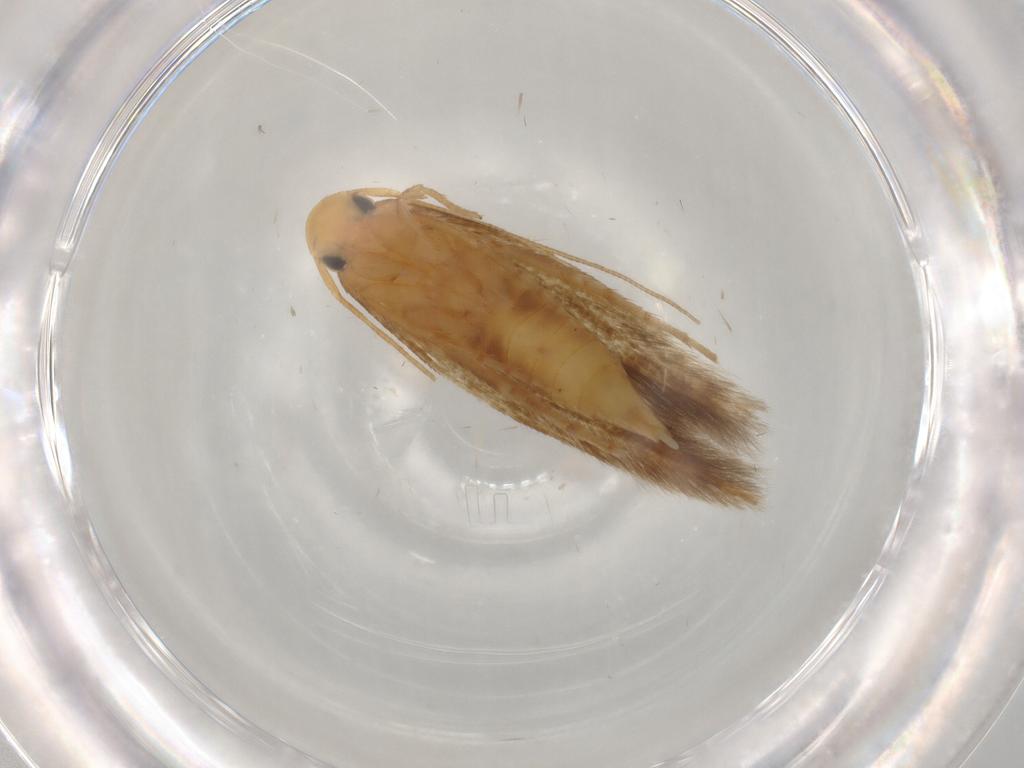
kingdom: Animalia
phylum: Arthropoda
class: Insecta
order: Lepidoptera
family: Tineidae
